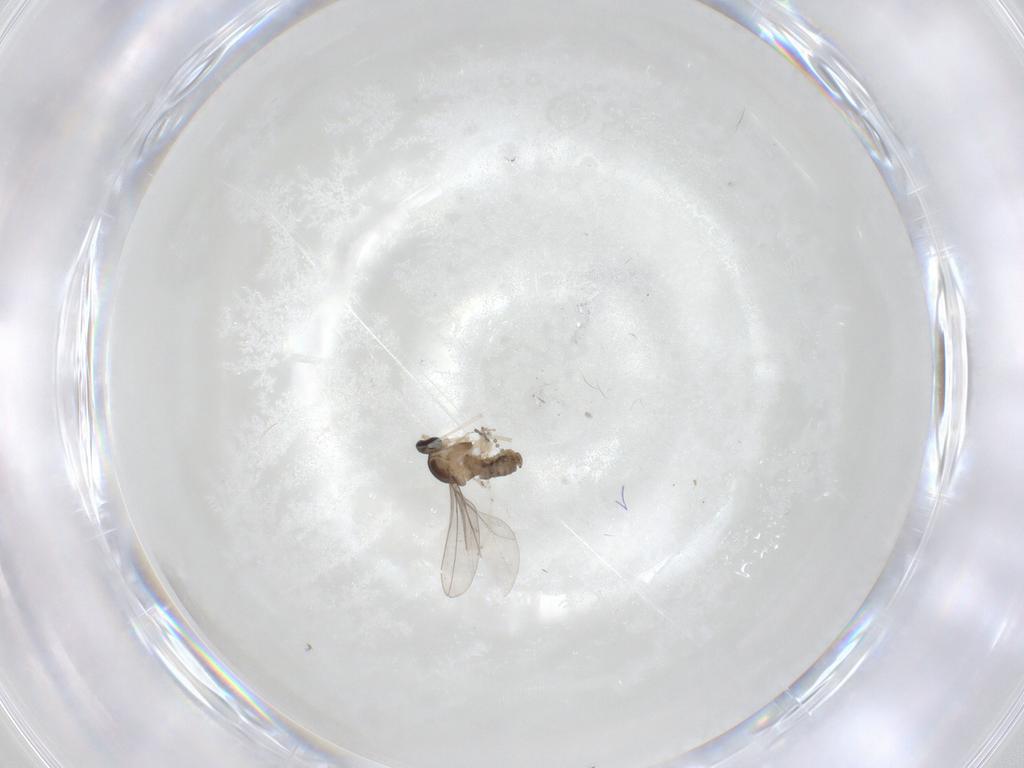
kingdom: Animalia
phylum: Arthropoda
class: Insecta
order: Diptera
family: Cecidomyiidae
